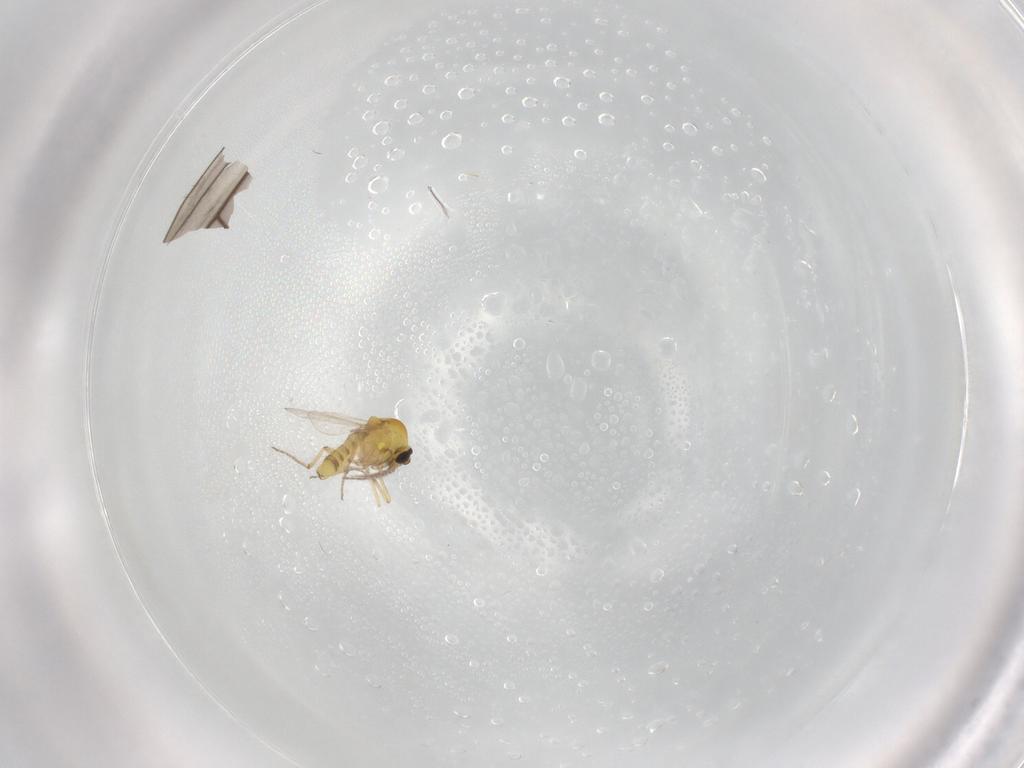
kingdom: Animalia
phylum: Arthropoda
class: Insecta
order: Diptera
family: Ceratopogonidae
